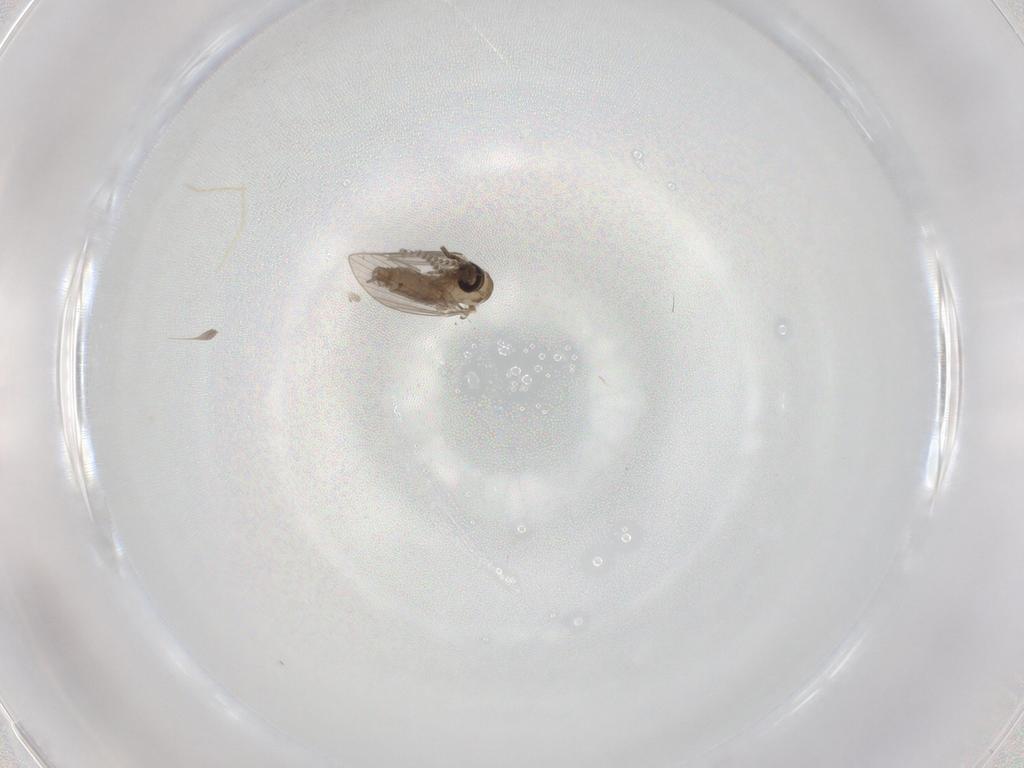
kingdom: Animalia
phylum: Arthropoda
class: Insecta
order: Diptera
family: Psychodidae
